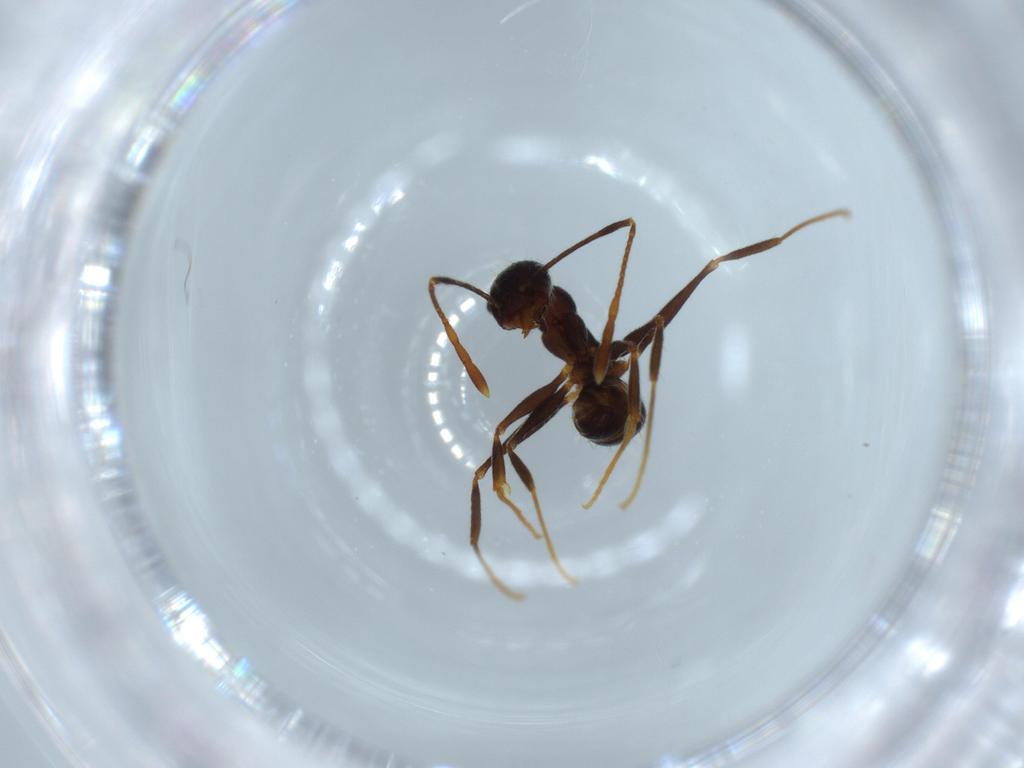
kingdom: Animalia
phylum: Arthropoda
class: Insecta
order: Hymenoptera
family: Formicidae
